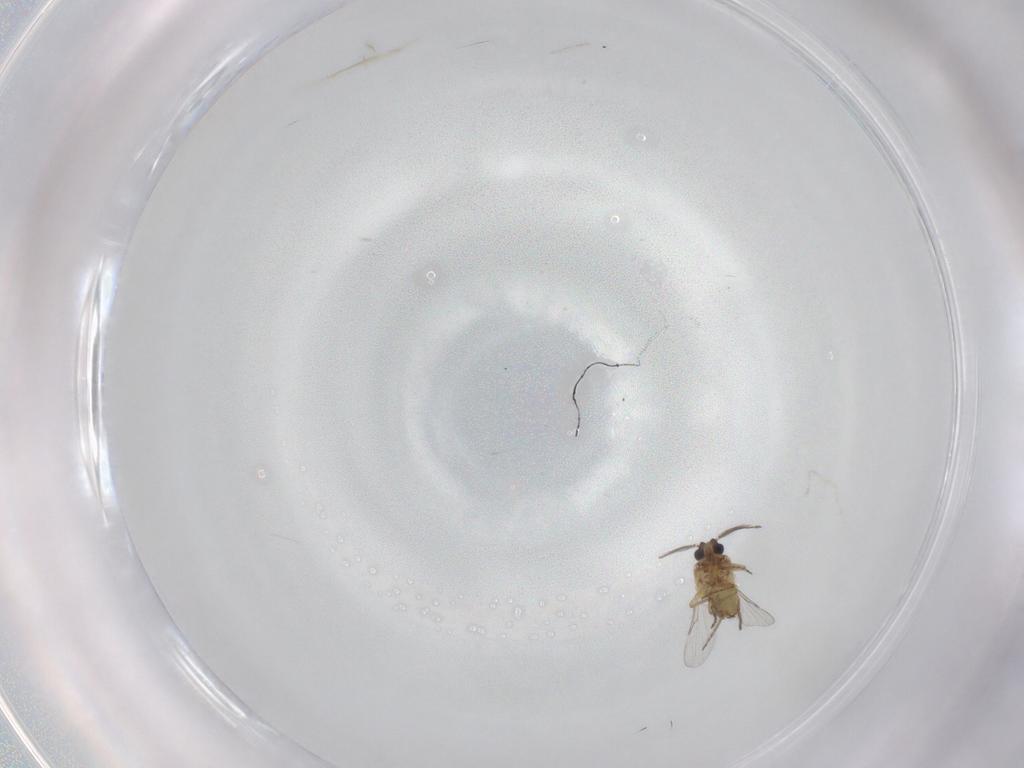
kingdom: Animalia
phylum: Arthropoda
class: Insecta
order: Diptera
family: Ceratopogonidae
